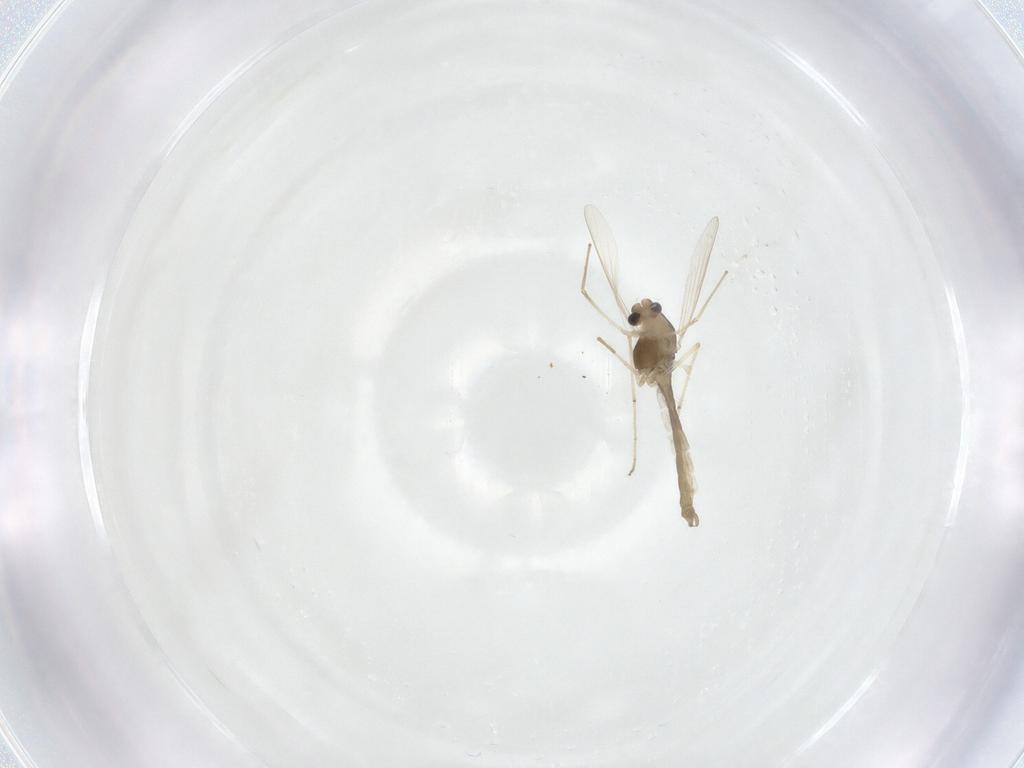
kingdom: Animalia
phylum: Arthropoda
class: Insecta
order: Diptera
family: Chironomidae
